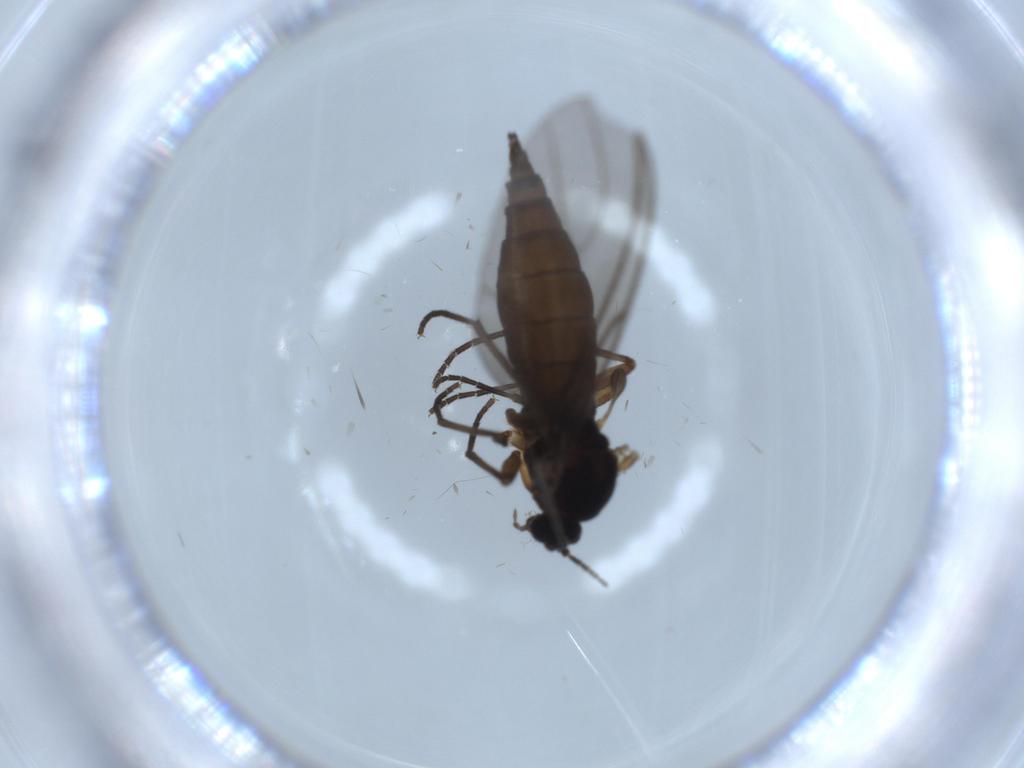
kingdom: Animalia
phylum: Arthropoda
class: Insecta
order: Diptera
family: Sciaridae
